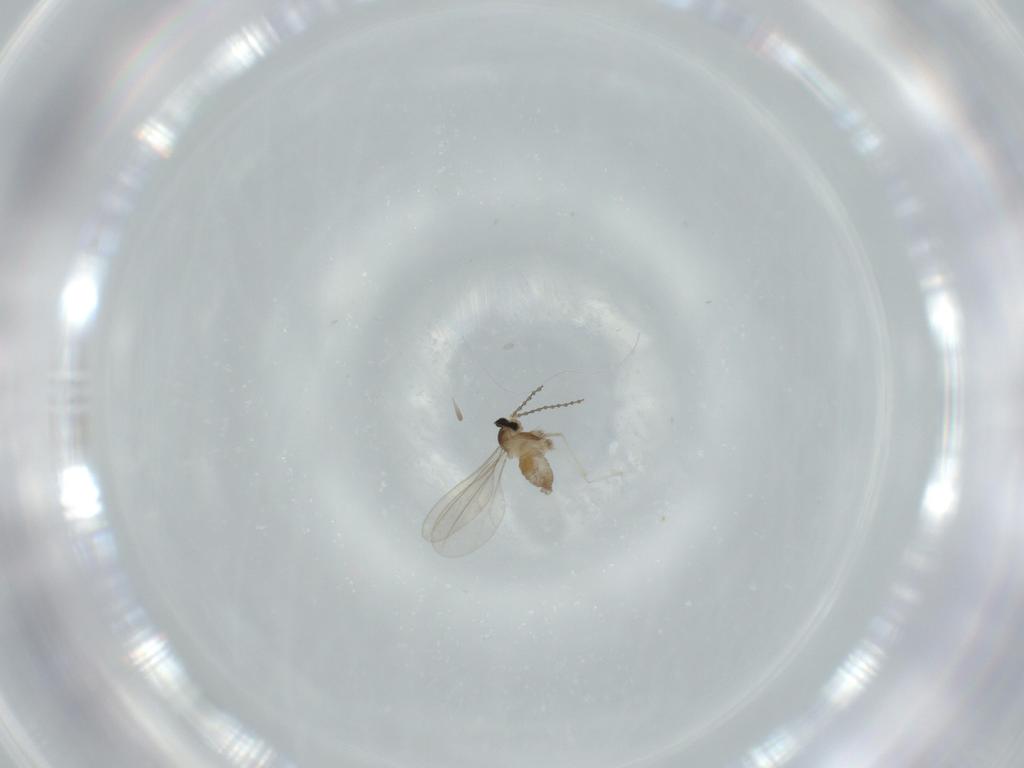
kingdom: Animalia
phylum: Arthropoda
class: Insecta
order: Diptera
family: Cecidomyiidae
